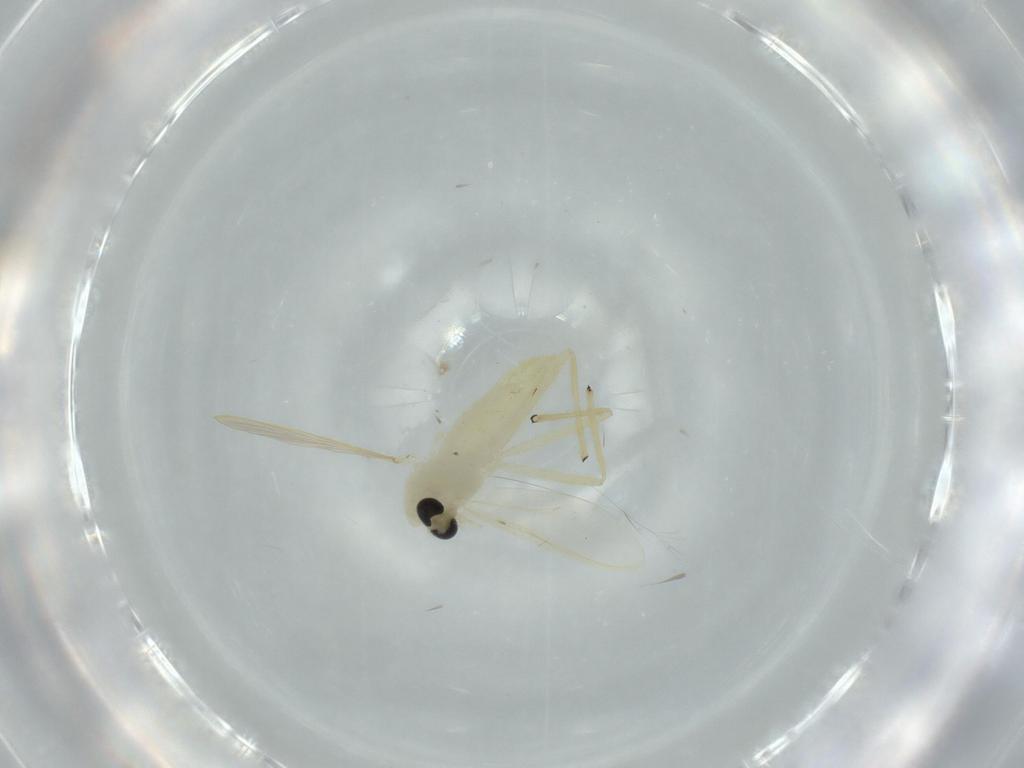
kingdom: Animalia
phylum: Arthropoda
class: Insecta
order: Diptera
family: Chironomidae
